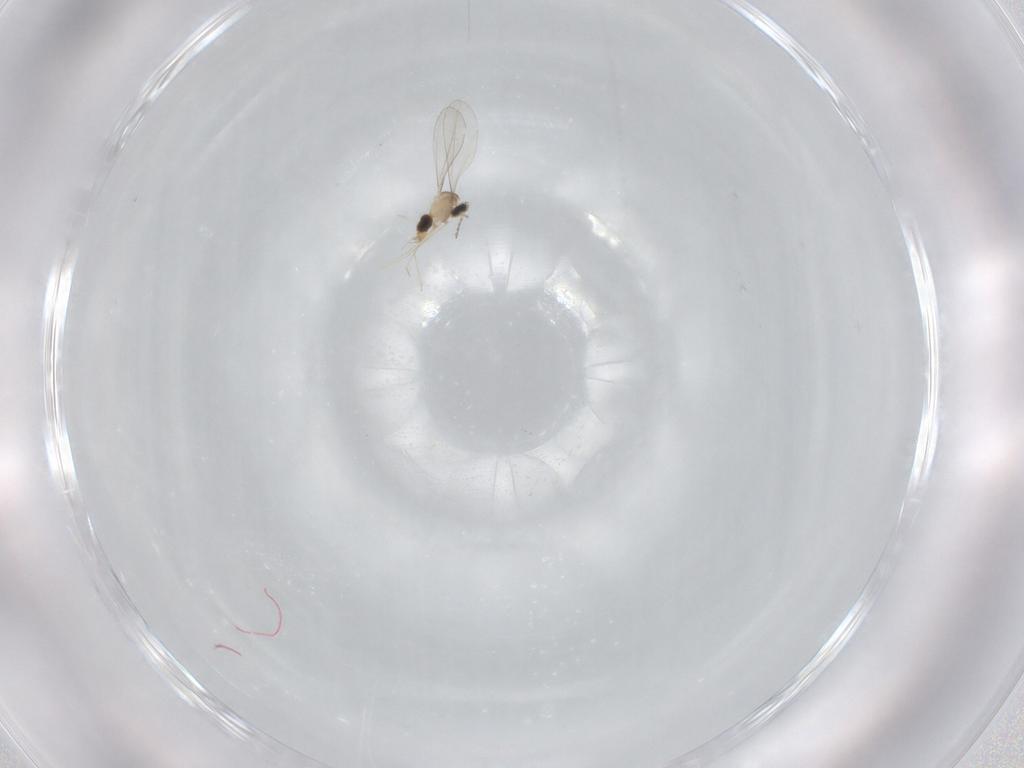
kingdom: Animalia
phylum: Arthropoda
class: Insecta
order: Diptera
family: Cecidomyiidae
